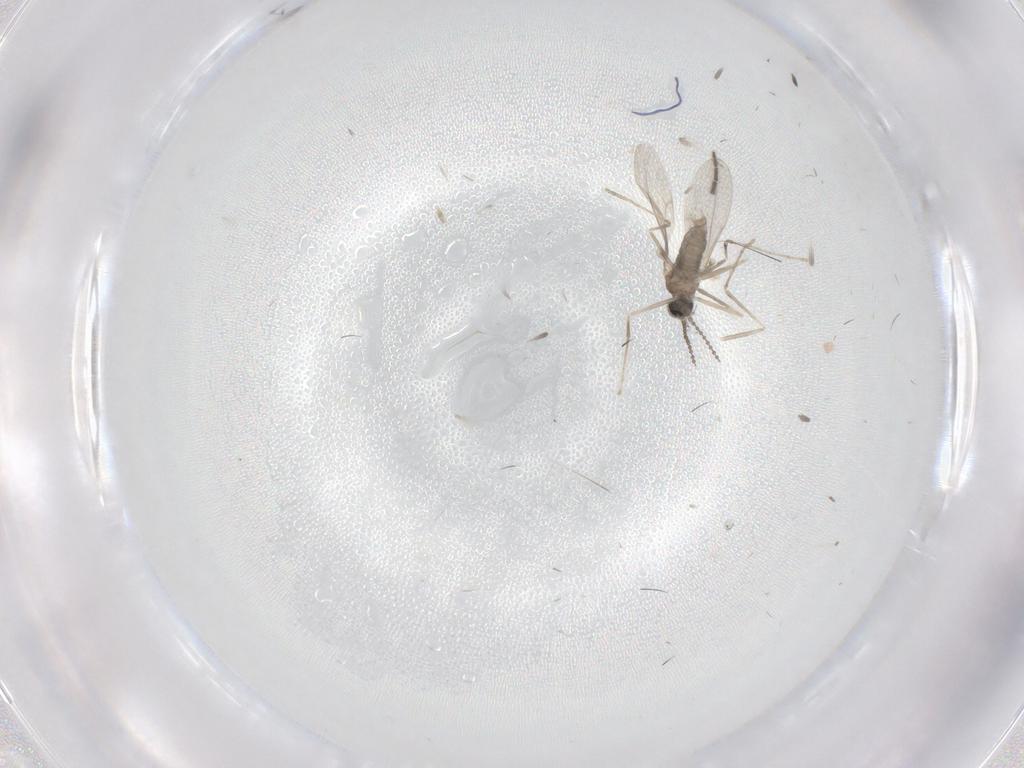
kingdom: Animalia
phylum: Arthropoda
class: Insecta
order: Diptera
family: Cecidomyiidae
